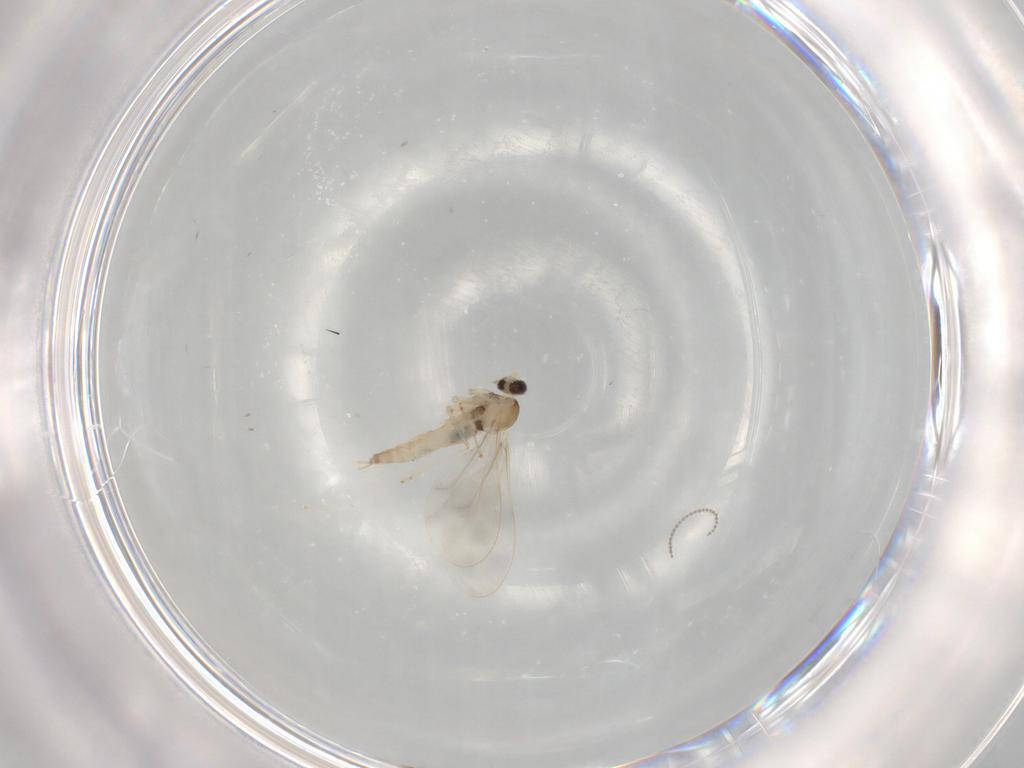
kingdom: Animalia
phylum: Arthropoda
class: Insecta
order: Diptera
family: Cecidomyiidae
